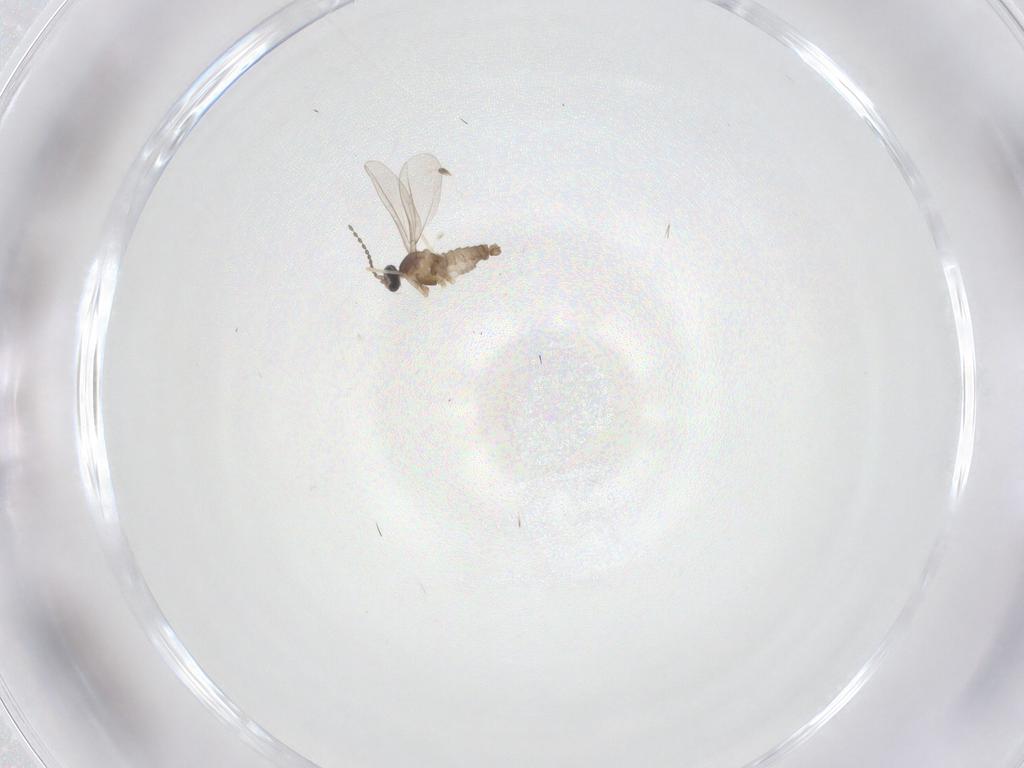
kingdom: Animalia
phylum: Arthropoda
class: Insecta
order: Diptera
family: Cecidomyiidae
